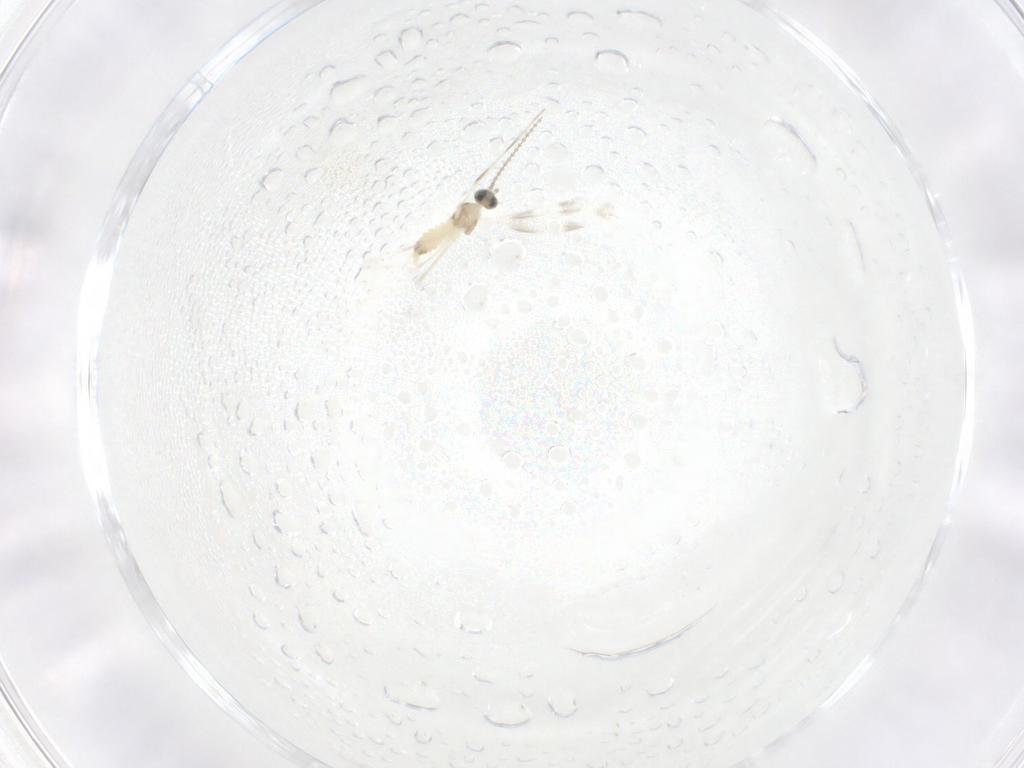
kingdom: Animalia
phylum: Arthropoda
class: Insecta
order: Diptera
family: Cecidomyiidae
